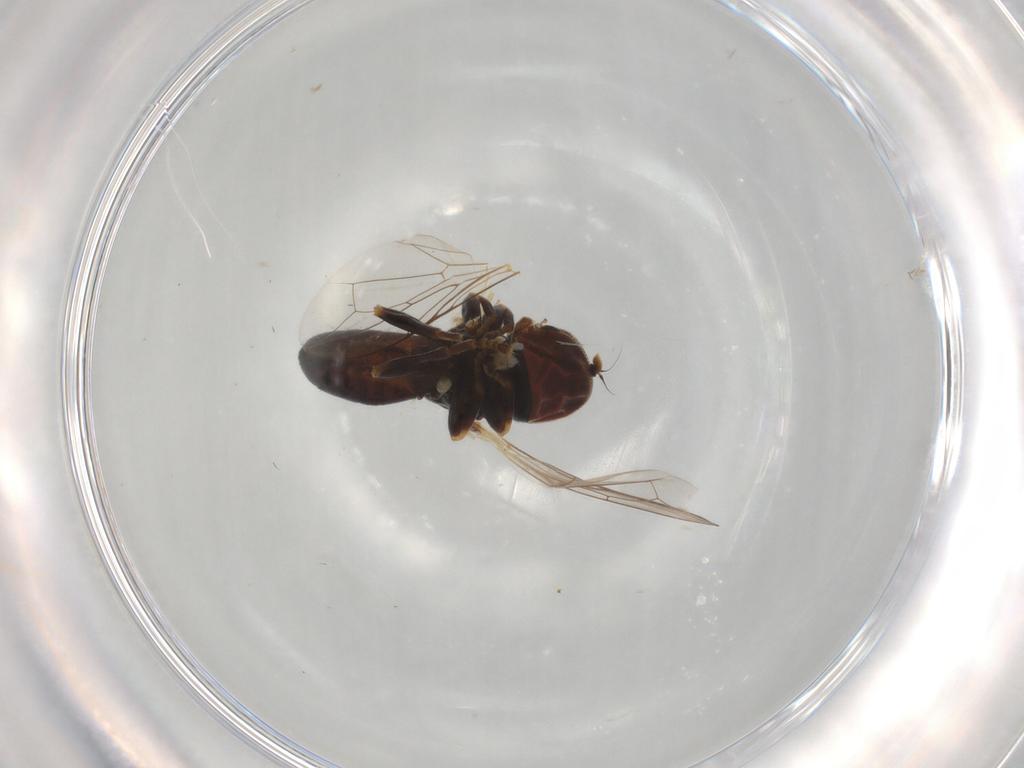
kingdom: Animalia
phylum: Arthropoda
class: Insecta
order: Diptera
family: Pipunculidae
